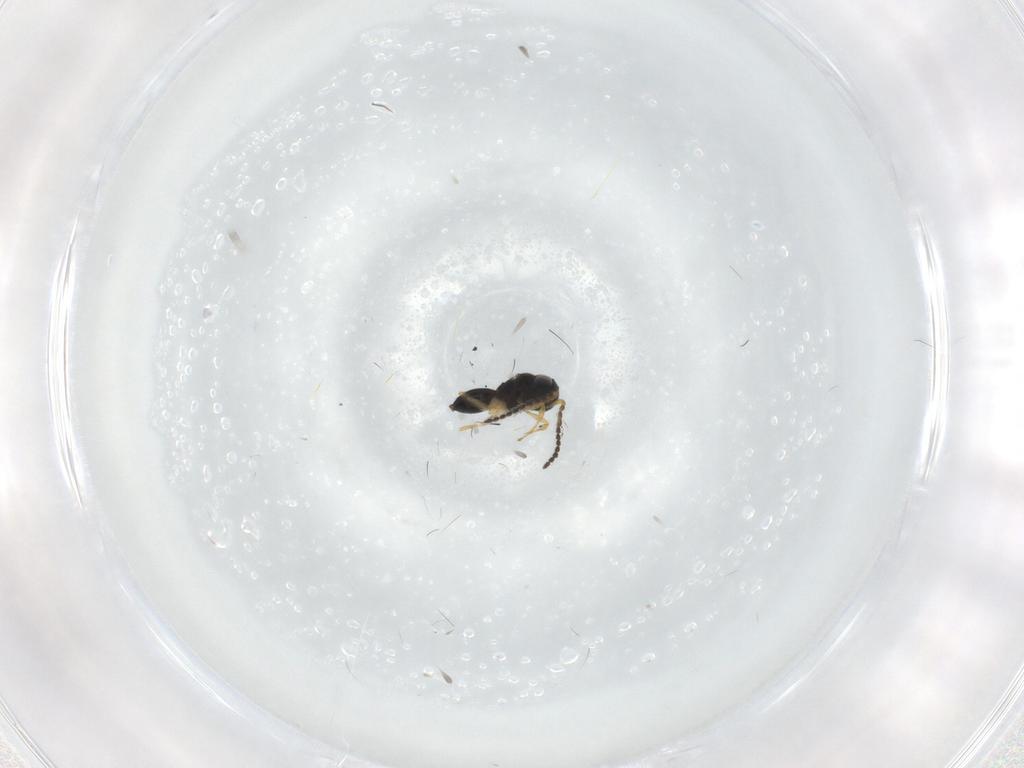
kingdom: Animalia
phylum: Arthropoda
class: Insecta
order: Hymenoptera
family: Scelionidae
